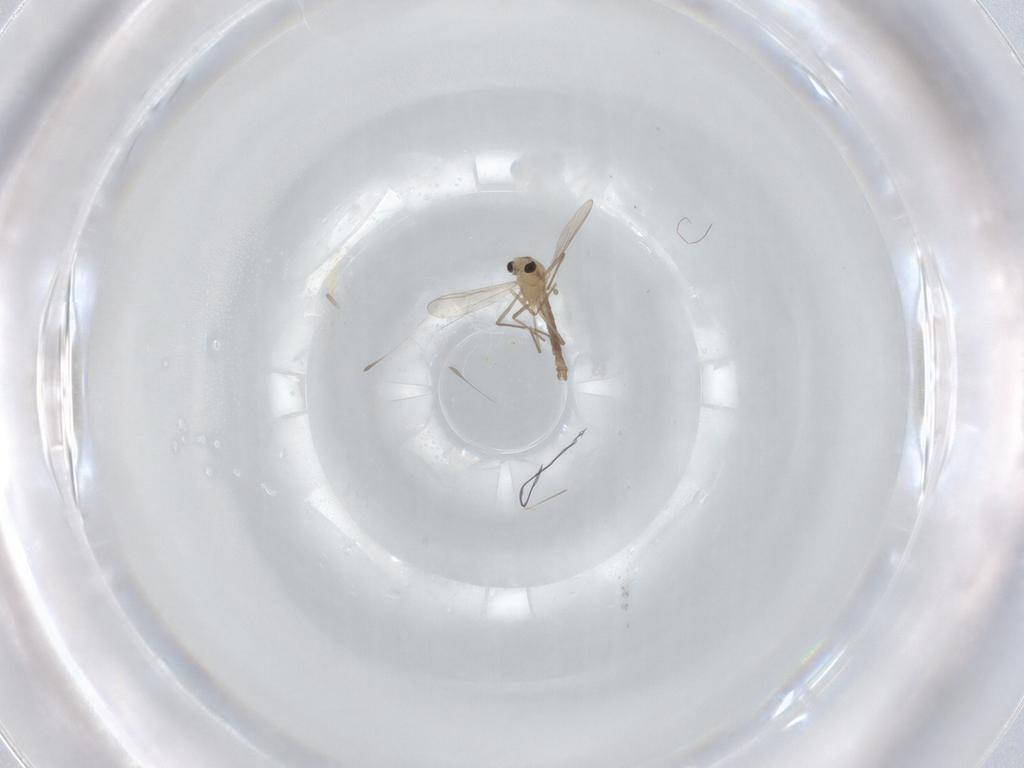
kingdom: Animalia
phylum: Arthropoda
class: Insecta
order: Diptera
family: Chironomidae
